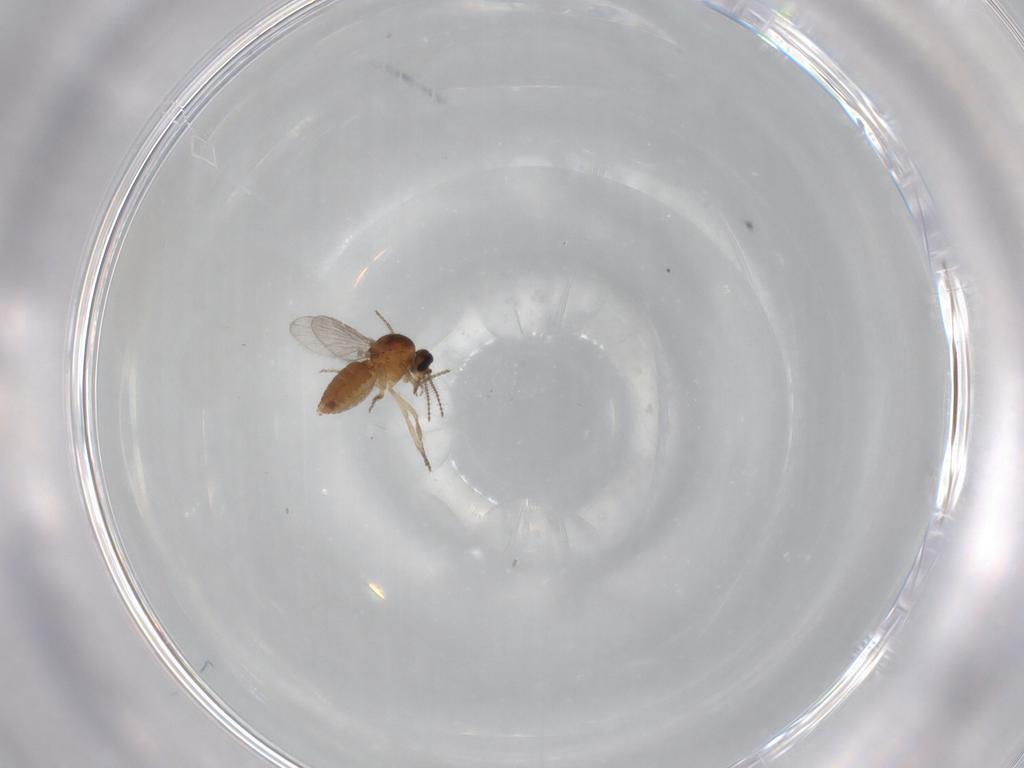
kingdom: Animalia
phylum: Arthropoda
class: Insecta
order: Diptera
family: Ceratopogonidae
